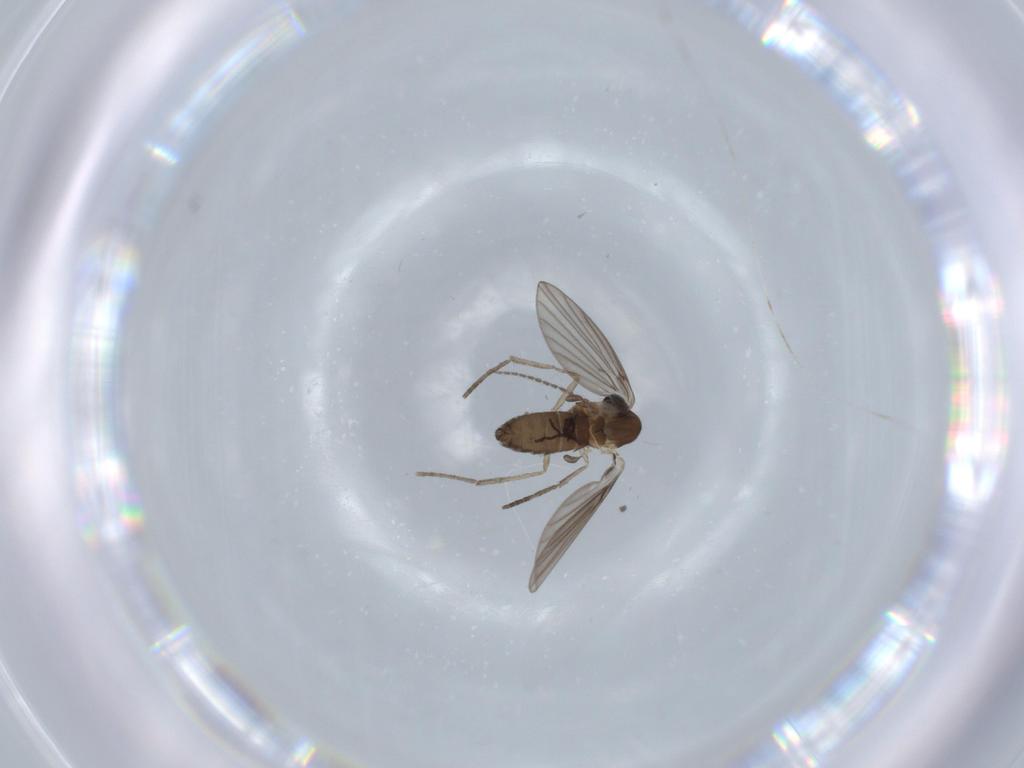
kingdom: Animalia
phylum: Arthropoda
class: Insecta
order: Diptera
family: Psychodidae
